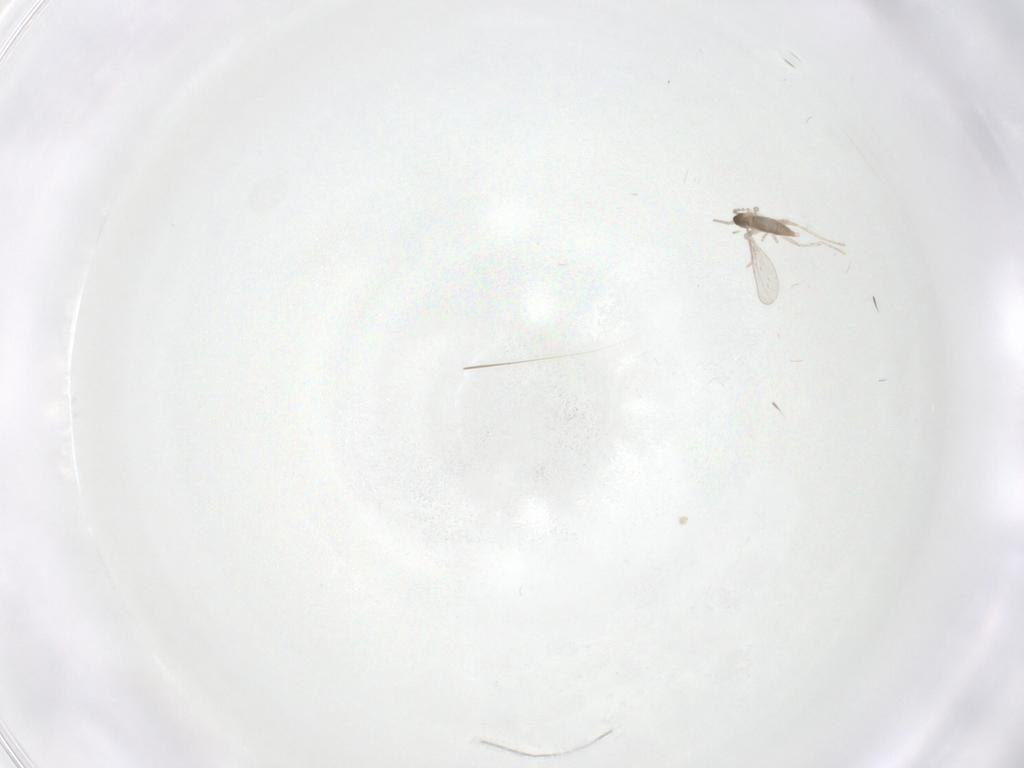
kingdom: Animalia
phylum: Arthropoda
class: Insecta
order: Diptera
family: Cecidomyiidae
